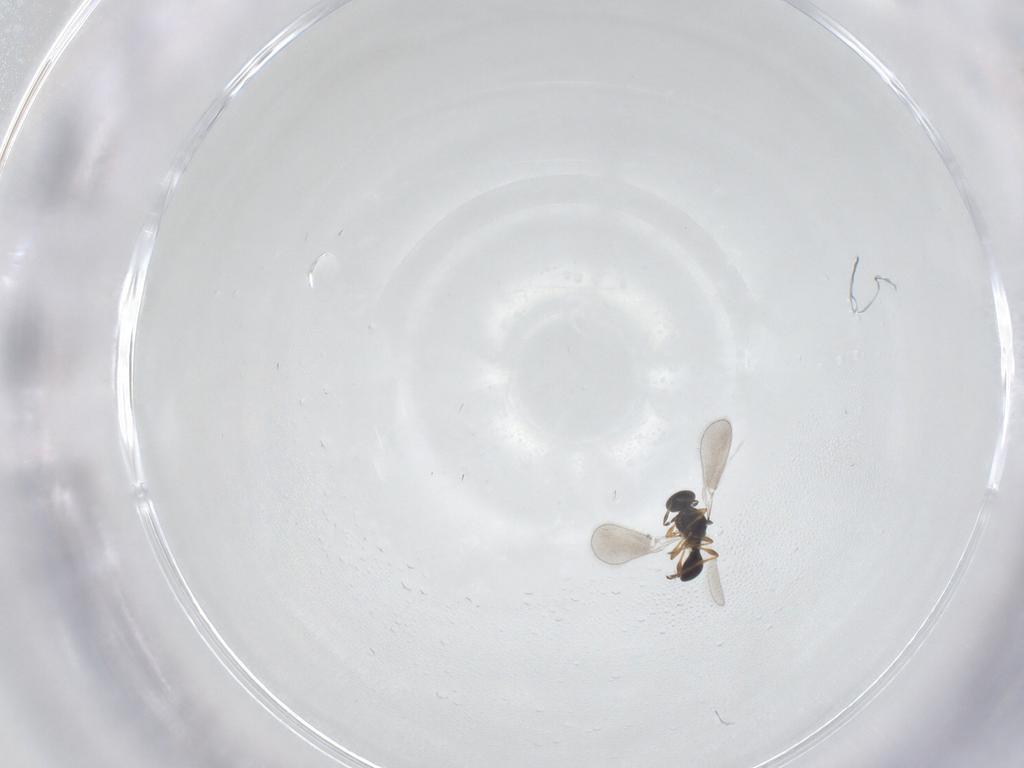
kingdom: Animalia
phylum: Arthropoda
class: Insecta
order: Hymenoptera
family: Platygastridae
